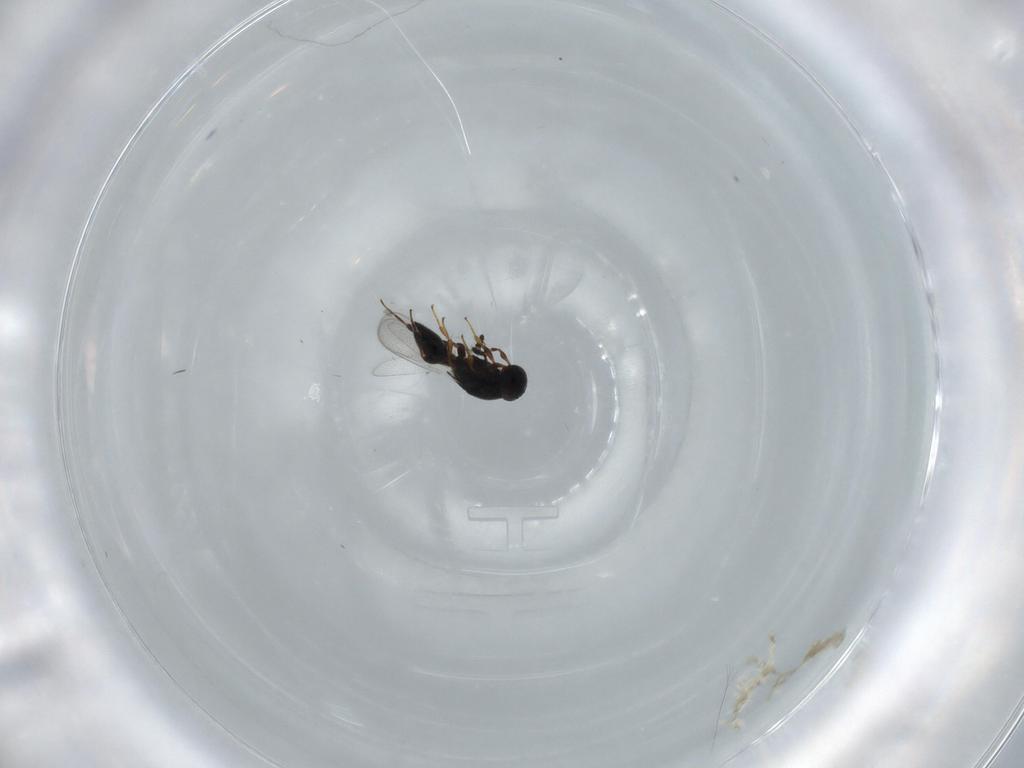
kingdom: Animalia
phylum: Arthropoda
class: Insecta
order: Hymenoptera
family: Platygastridae
